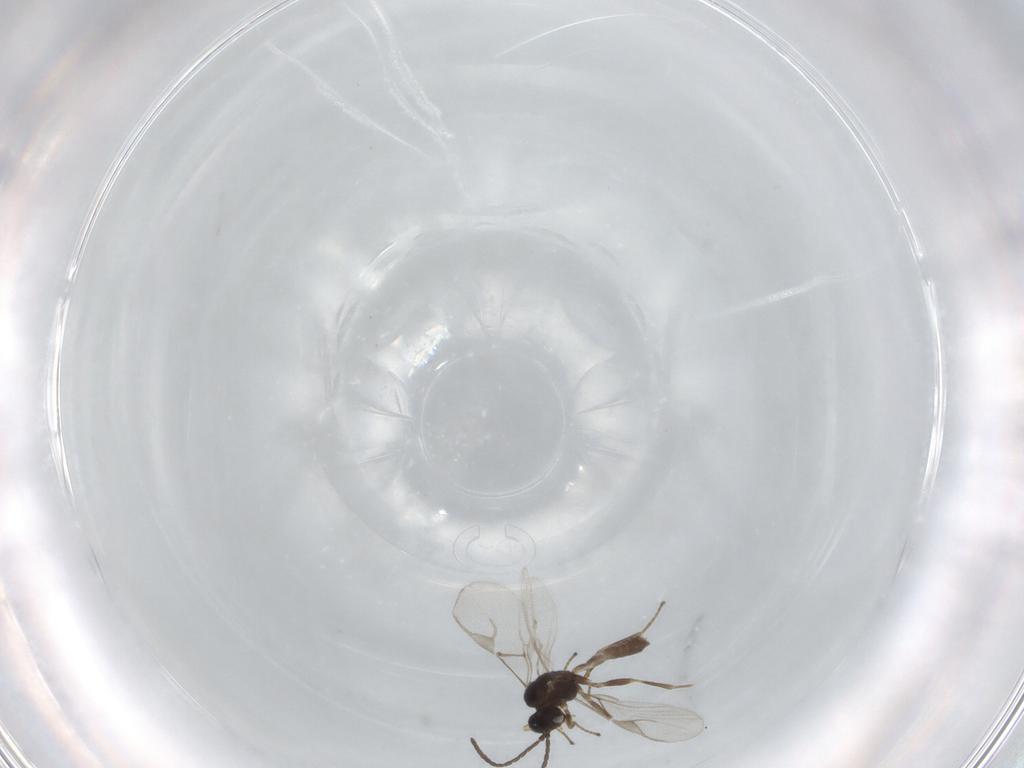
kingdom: Animalia
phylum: Arthropoda
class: Insecta
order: Hymenoptera
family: Braconidae
